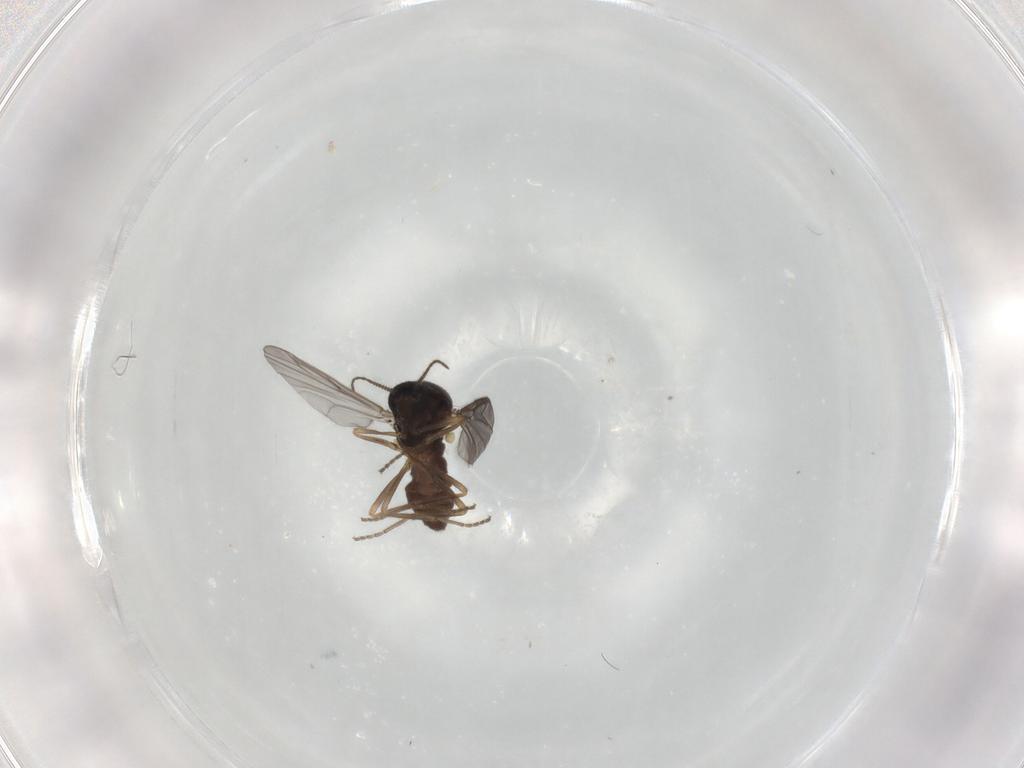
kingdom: Animalia
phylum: Arthropoda
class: Insecta
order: Diptera
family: Ceratopogonidae
